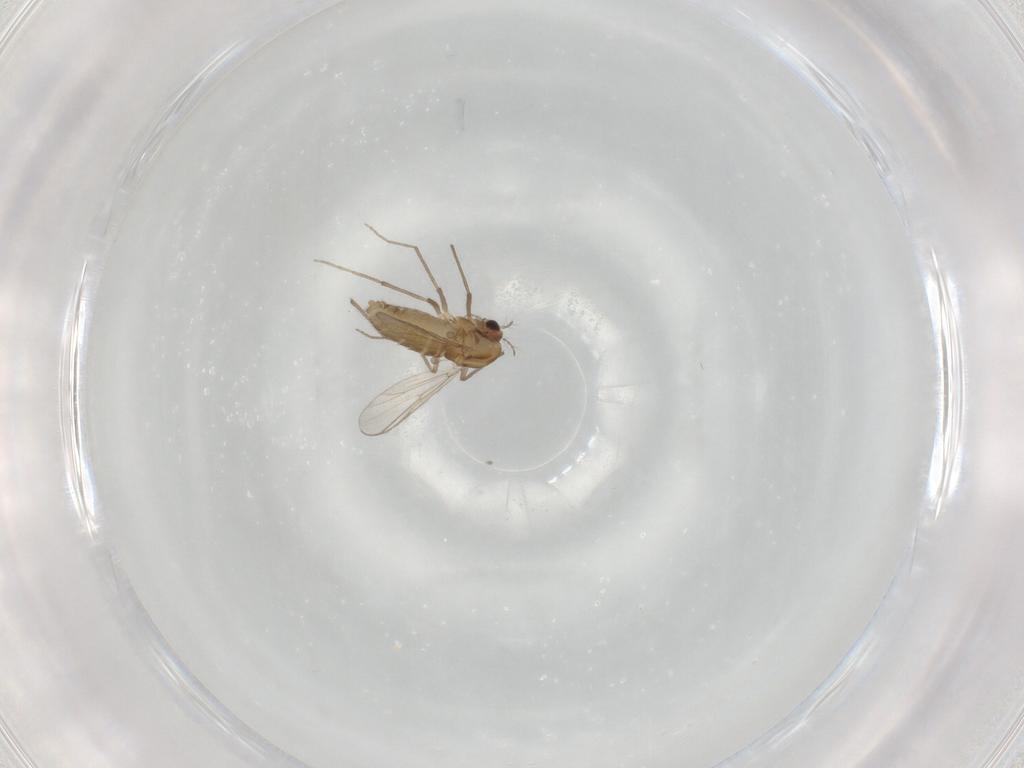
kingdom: Animalia
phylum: Arthropoda
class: Insecta
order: Diptera
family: Chironomidae
